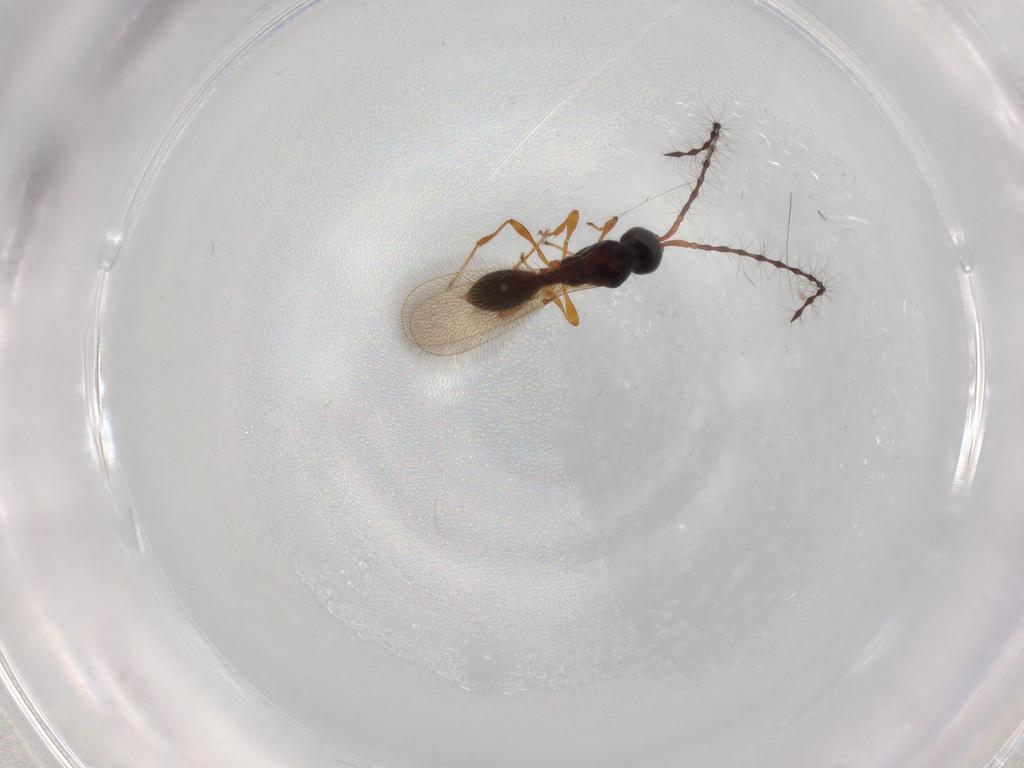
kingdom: Animalia
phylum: Arthropoda
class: Insecta
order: Hymenoptera
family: Diapriidae
